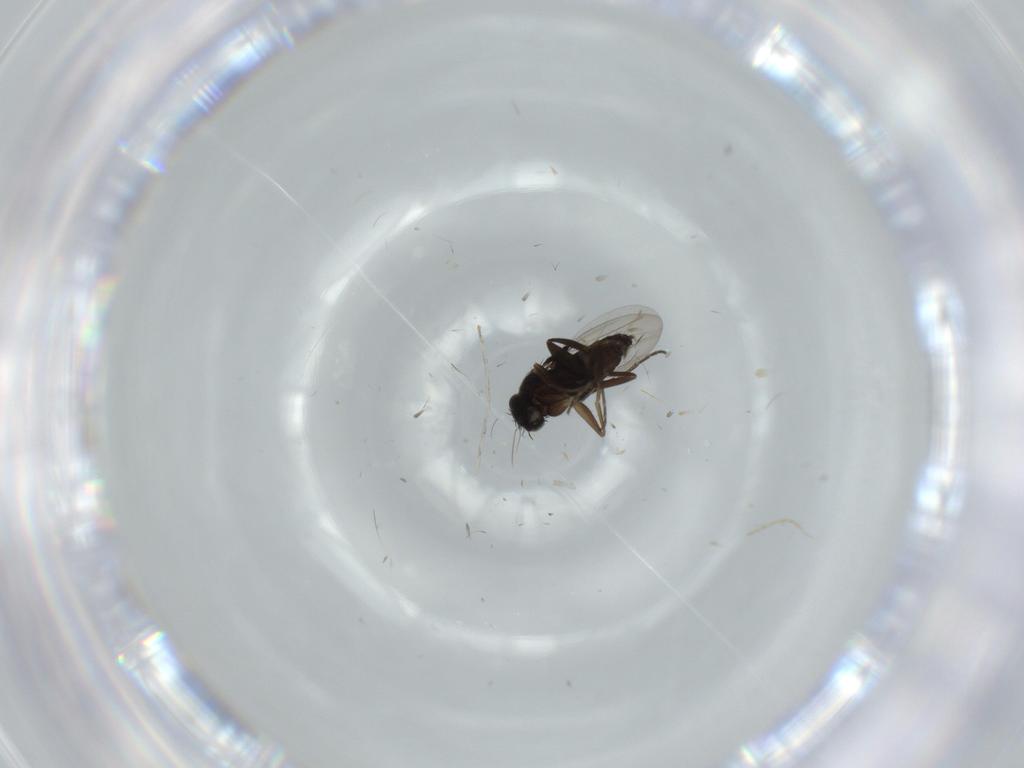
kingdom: Animalia
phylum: Arthropoda
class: Insecta
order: Diptera
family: Phoridae
